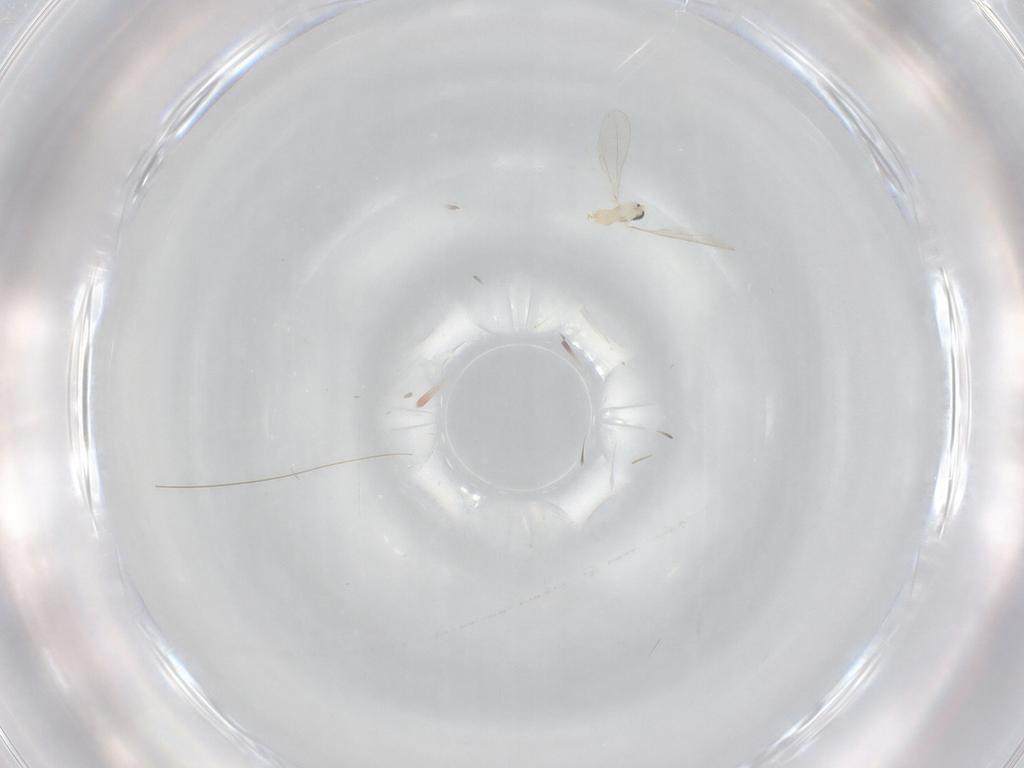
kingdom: Animalia
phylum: Arthropoda
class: Insecta
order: Diptera
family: Cecidomyiidae
